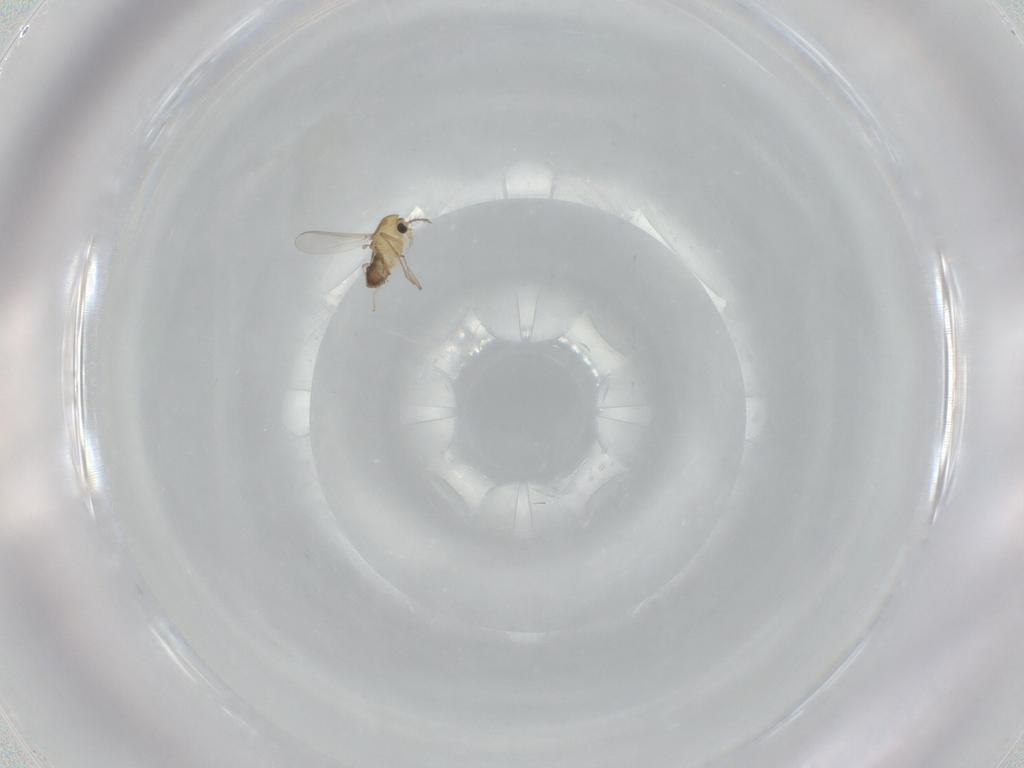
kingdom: Animalia
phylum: Arthropoda
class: Insecta
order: Diptera
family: Chironomidae
